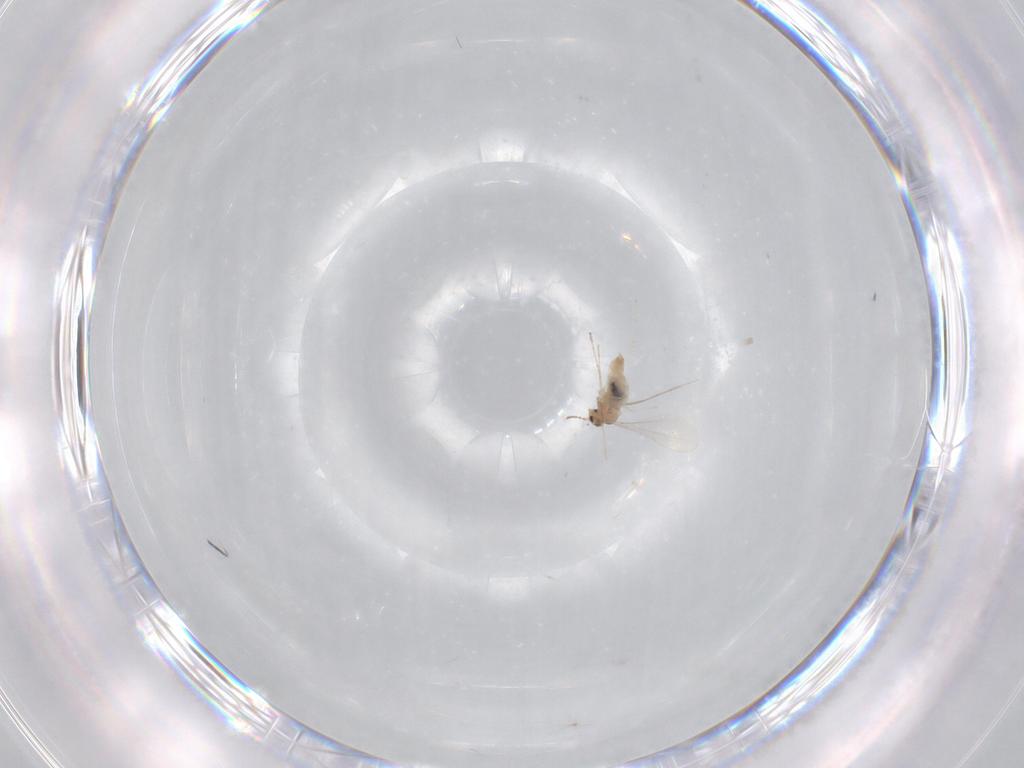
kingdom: Animalia
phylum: Arthropoda
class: Insecta
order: Diptera
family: Cecidomyiidae
